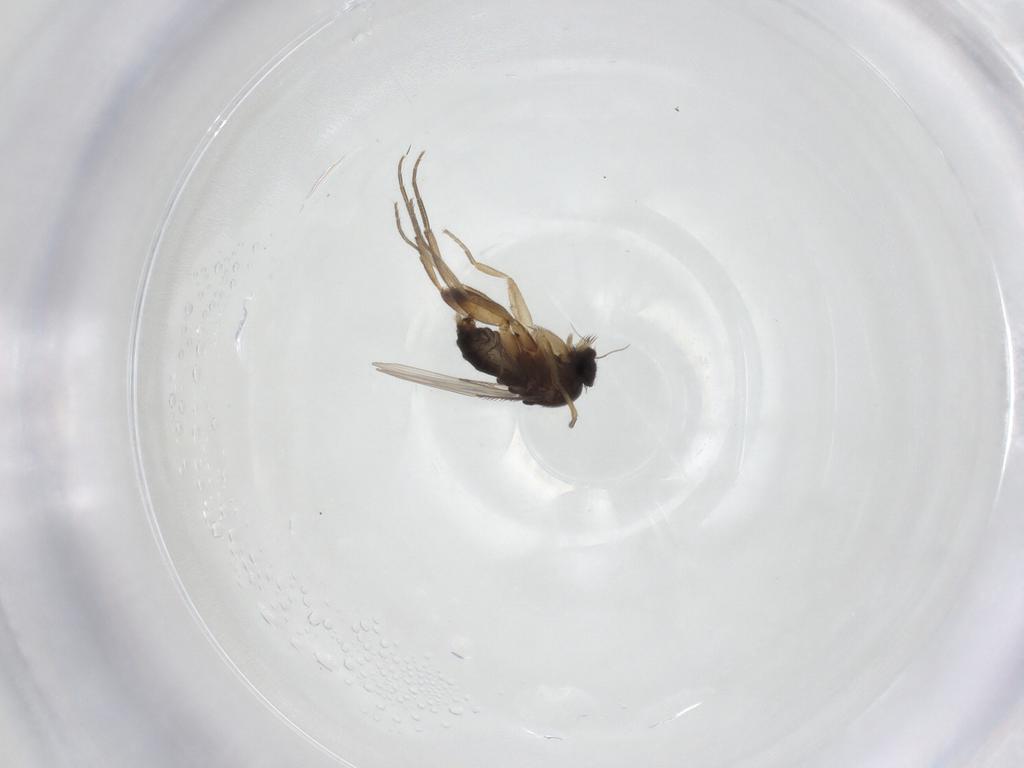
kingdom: Animalia
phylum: Arthropoda
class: Insecta
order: Diptera
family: Phoridae
